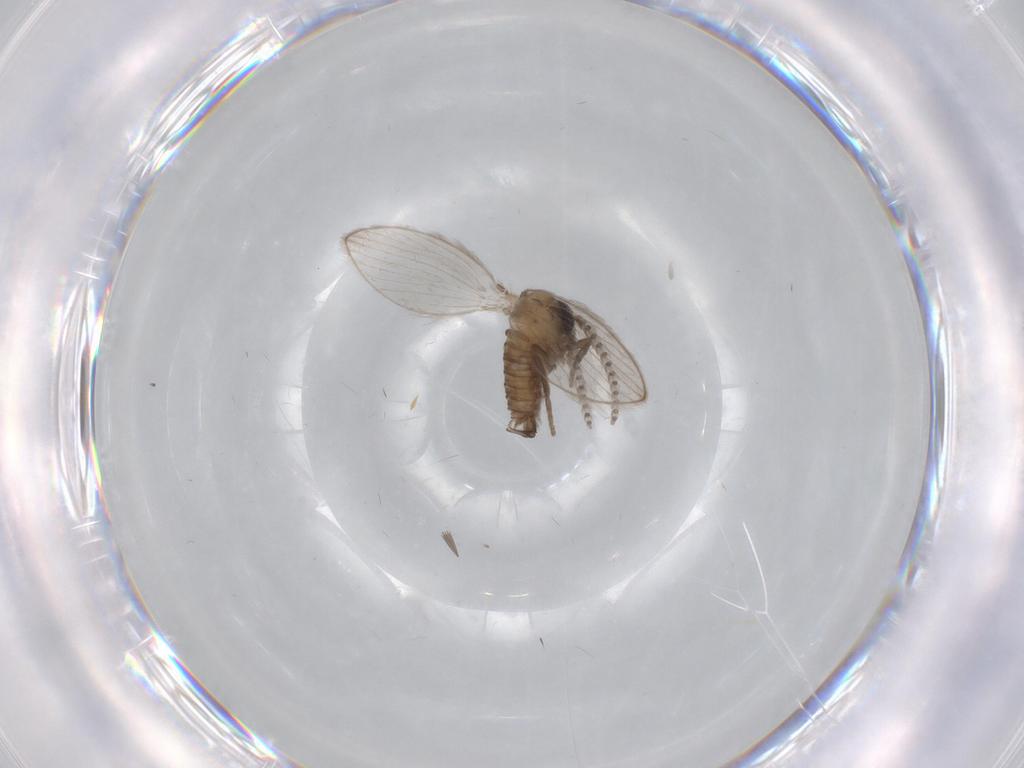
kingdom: Animalia
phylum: Arthropoda
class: Insecta
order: Diptera
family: Psychodidae
